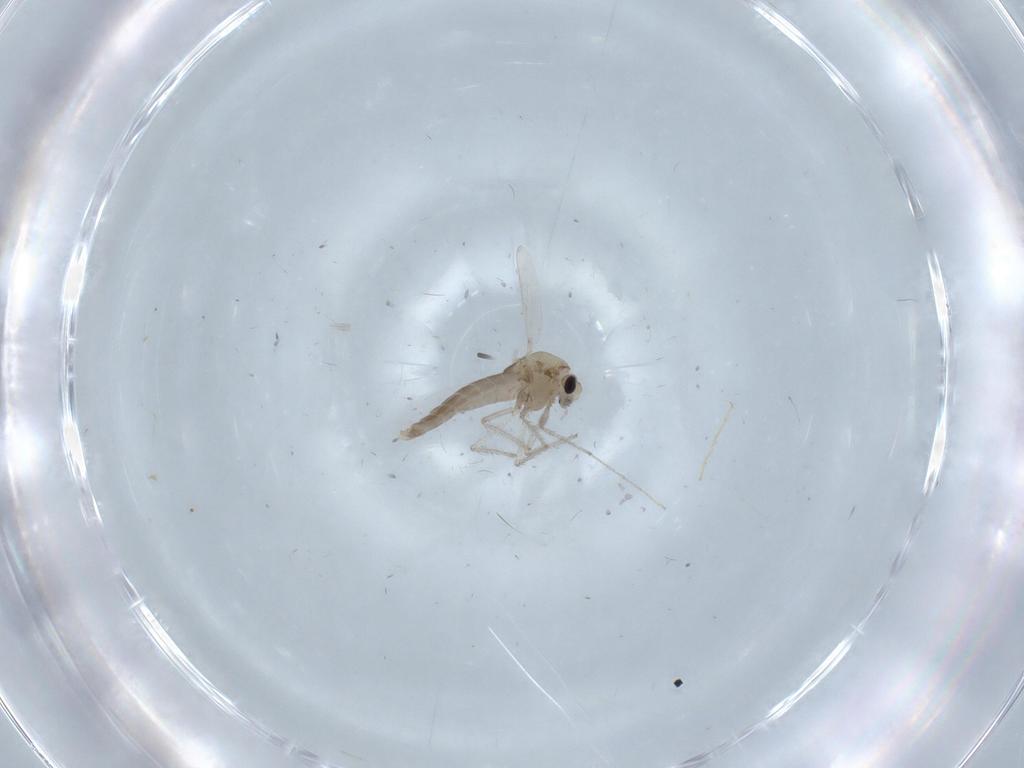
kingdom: Animalia
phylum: Arthropoda
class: Insecta
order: Diptera
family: Chironomidae
